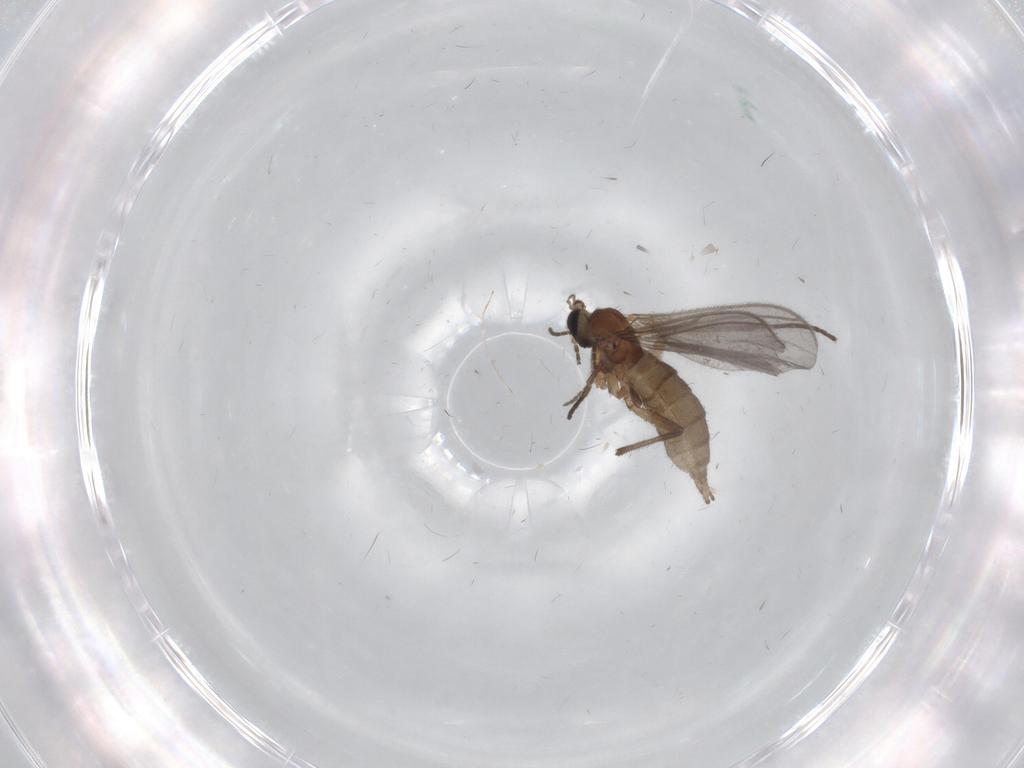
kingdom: Animalia
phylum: Arthropoda
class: Insecta
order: Diptera
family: Sciaridae
